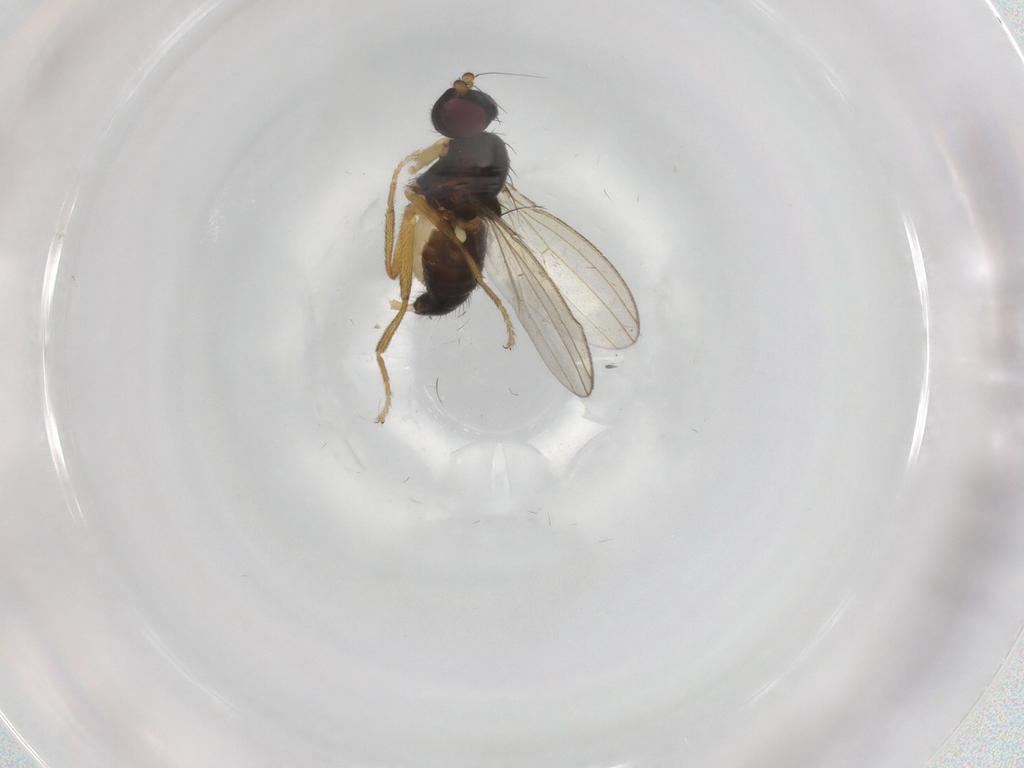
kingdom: Animalia
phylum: Arthropoda
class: Insecta
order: Diptera
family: Cypselosomatidae
